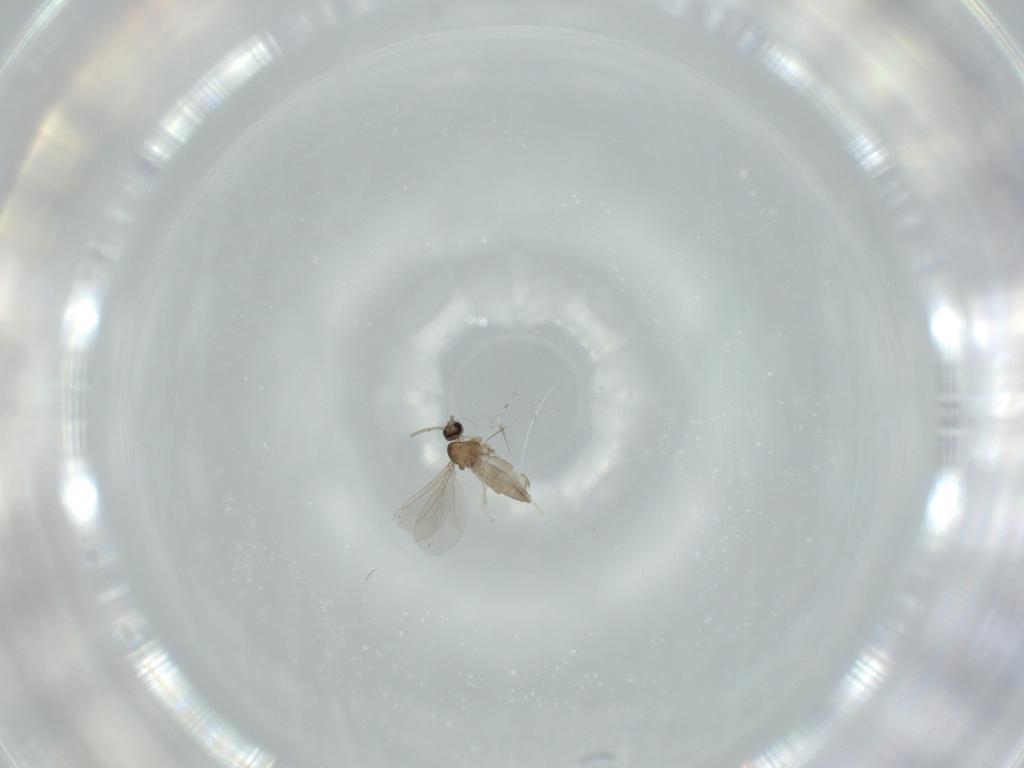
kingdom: Animalia
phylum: Arthropoda
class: Insecta
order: Diptera
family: Cecidomyiidae
